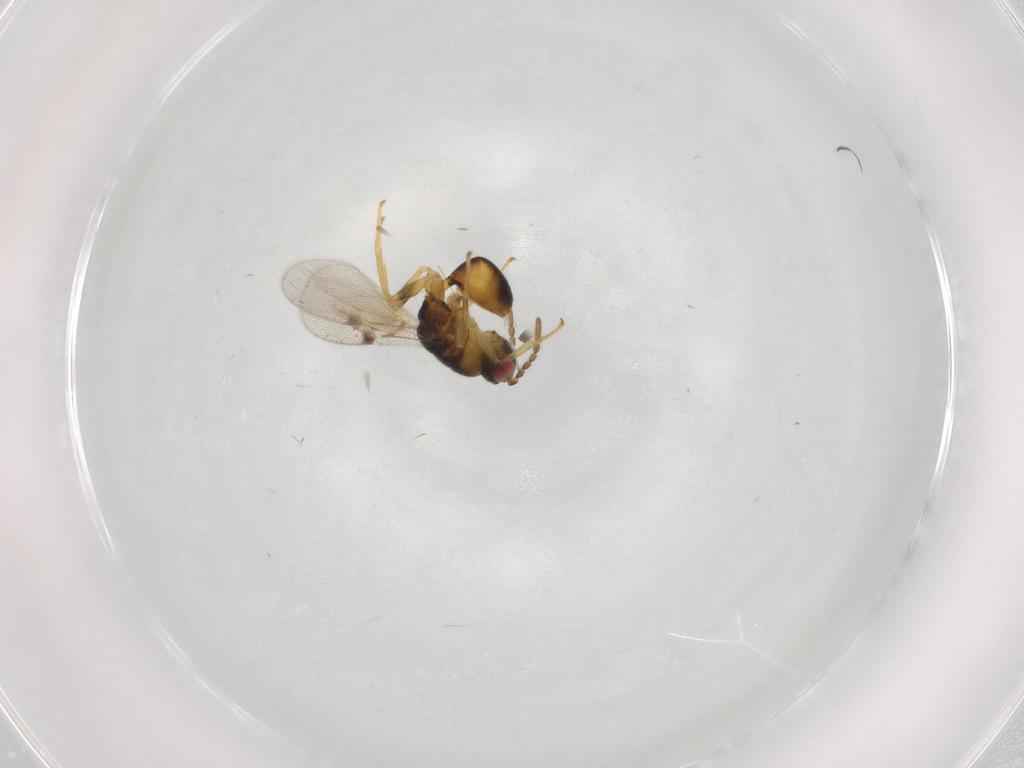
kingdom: Animalia
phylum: Arthropoda
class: Insecta
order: Hymenoptera
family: Eurytomidae
